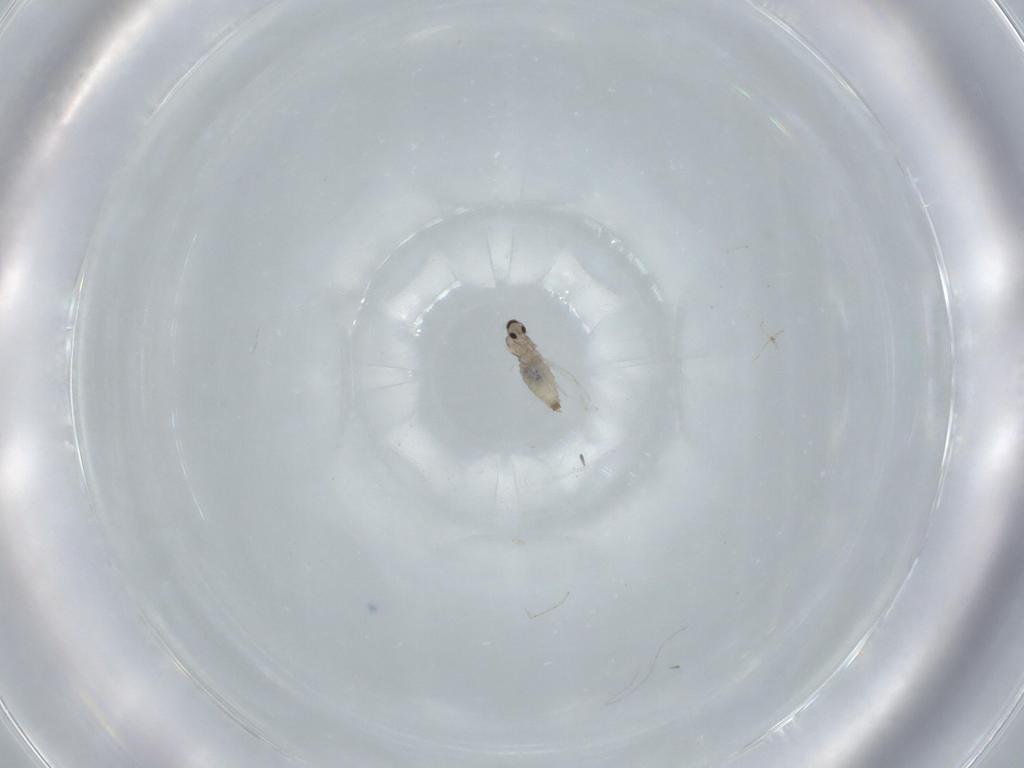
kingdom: Animalia
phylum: Arthropoda
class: Insecta
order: Diptera
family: Cecidomyiidae
